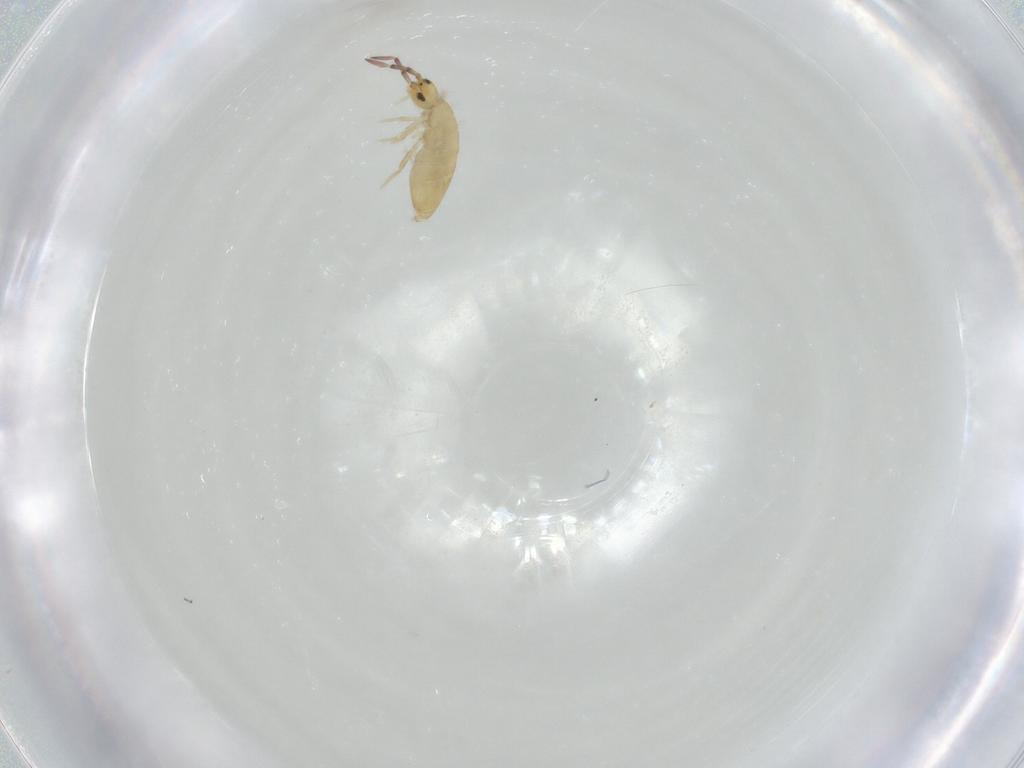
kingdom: Animalia
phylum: Arthropoda
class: Collembola
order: Entomobryomorpha
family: Entomobryidae
